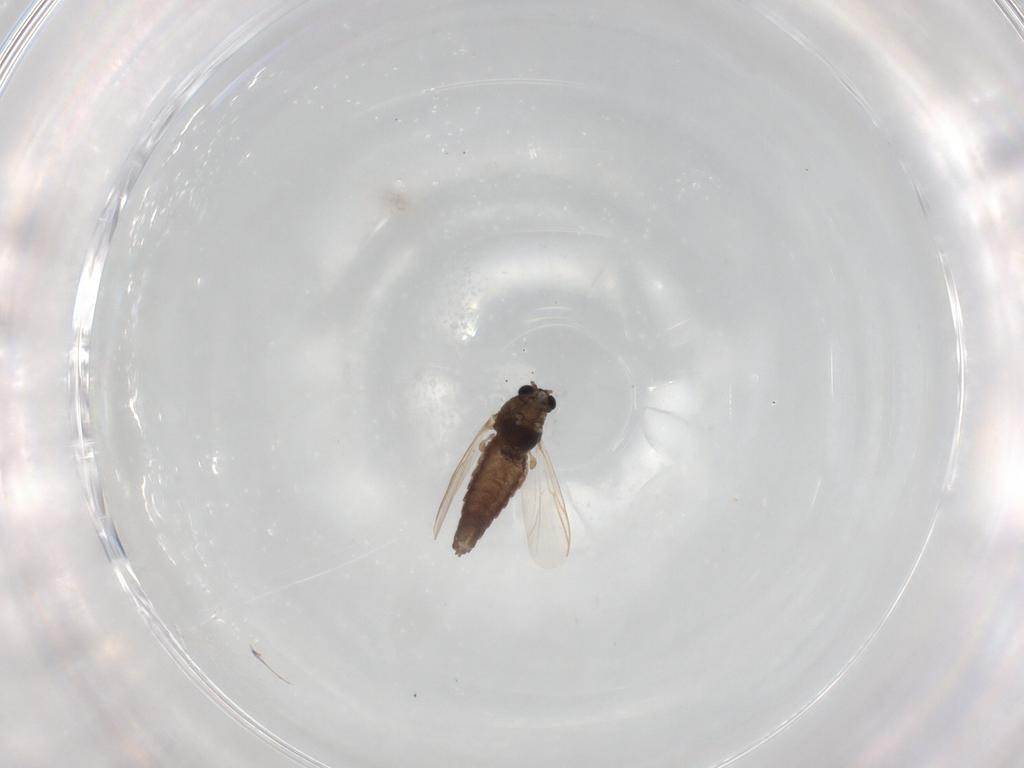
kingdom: Animalia
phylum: Arthropoda
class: Insecta
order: Diptera
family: Chironomidae
